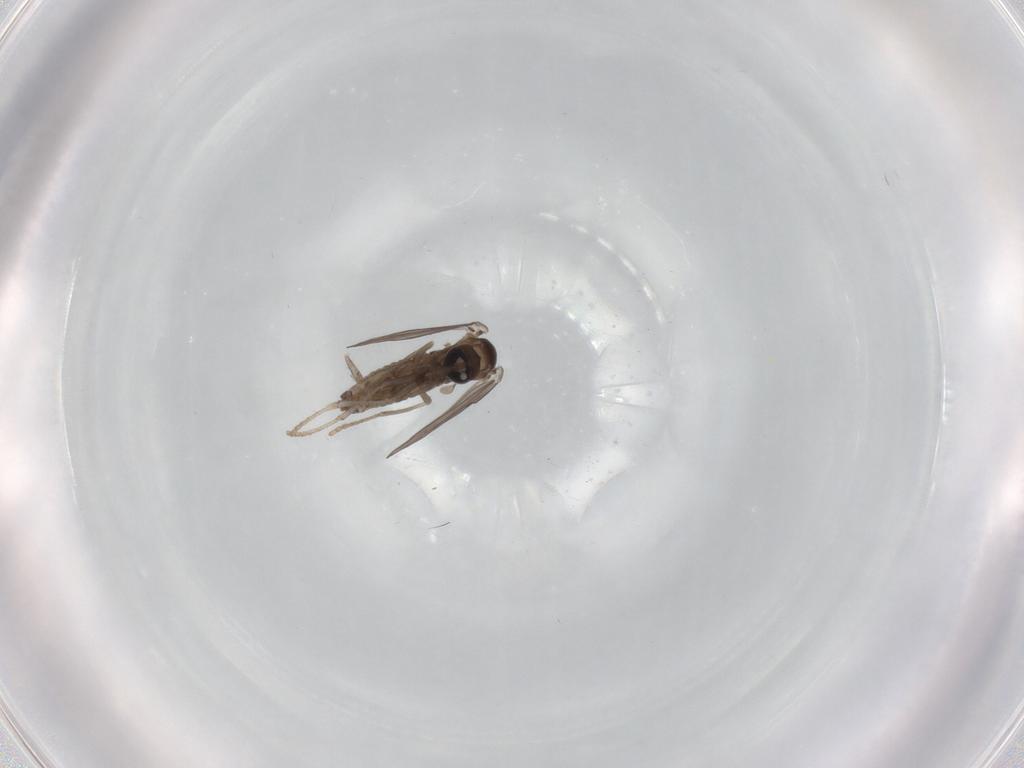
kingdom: Animalia
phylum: Arthropoda
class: Insecta
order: Diptera
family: Psychodidae
